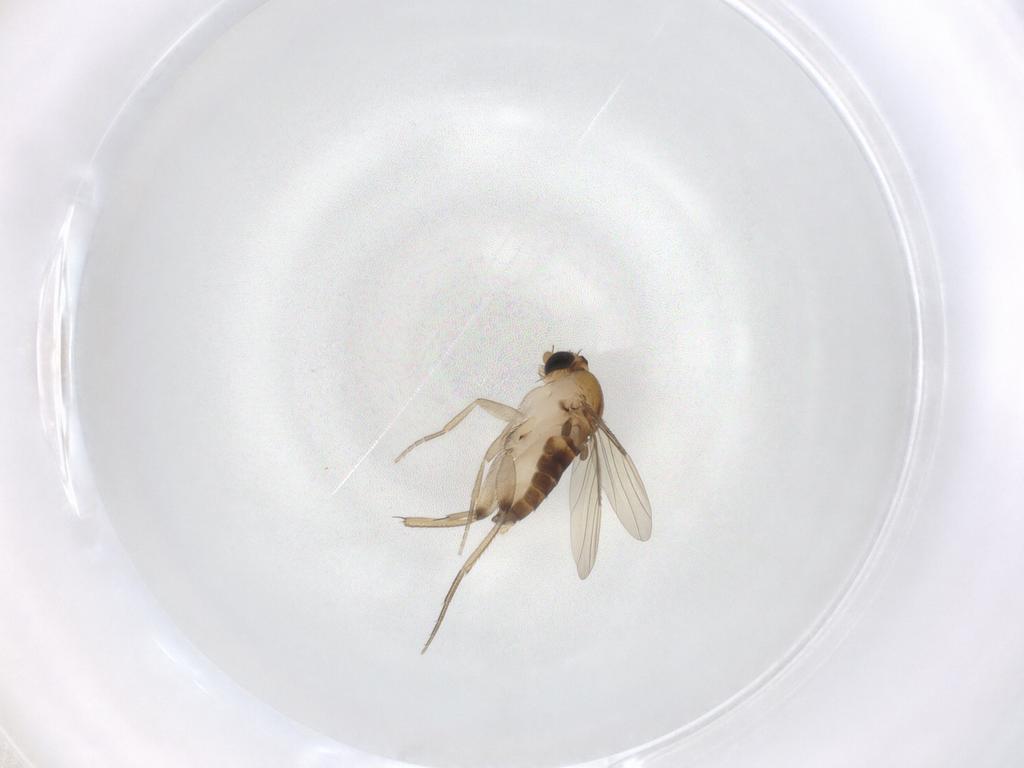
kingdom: Animalia
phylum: Arthropoda
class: Insecta
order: Diptera
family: Phoridae
